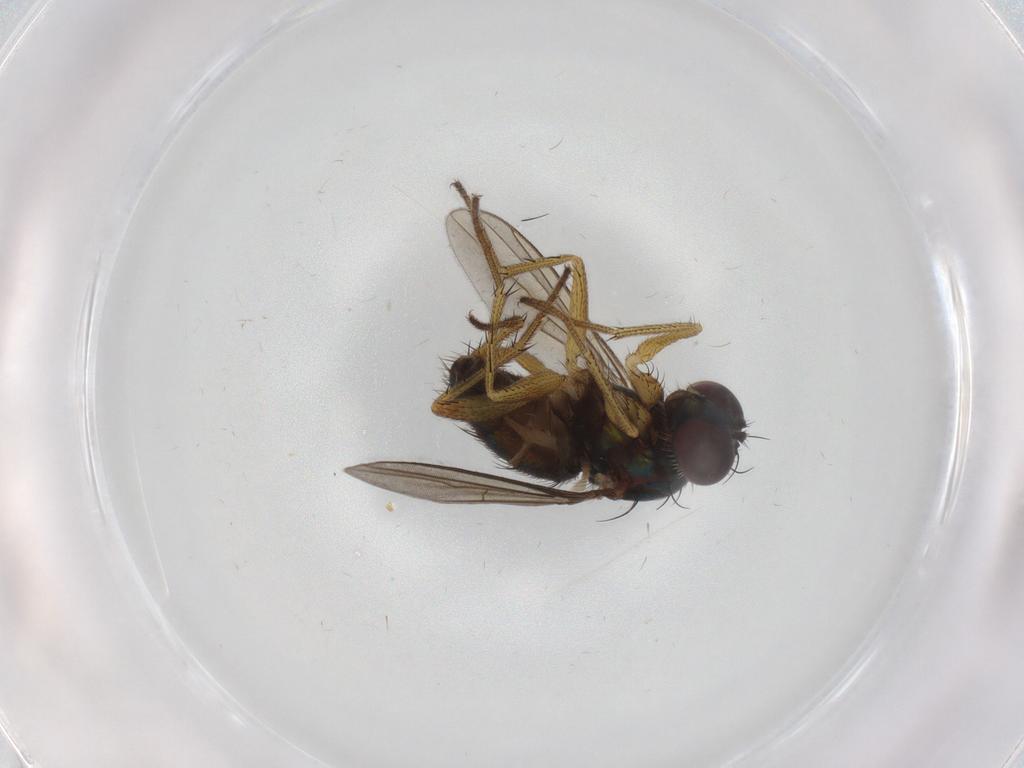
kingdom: Animalia
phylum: Arthropoda
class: Insecta
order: Diptera
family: Dolichopodidae
